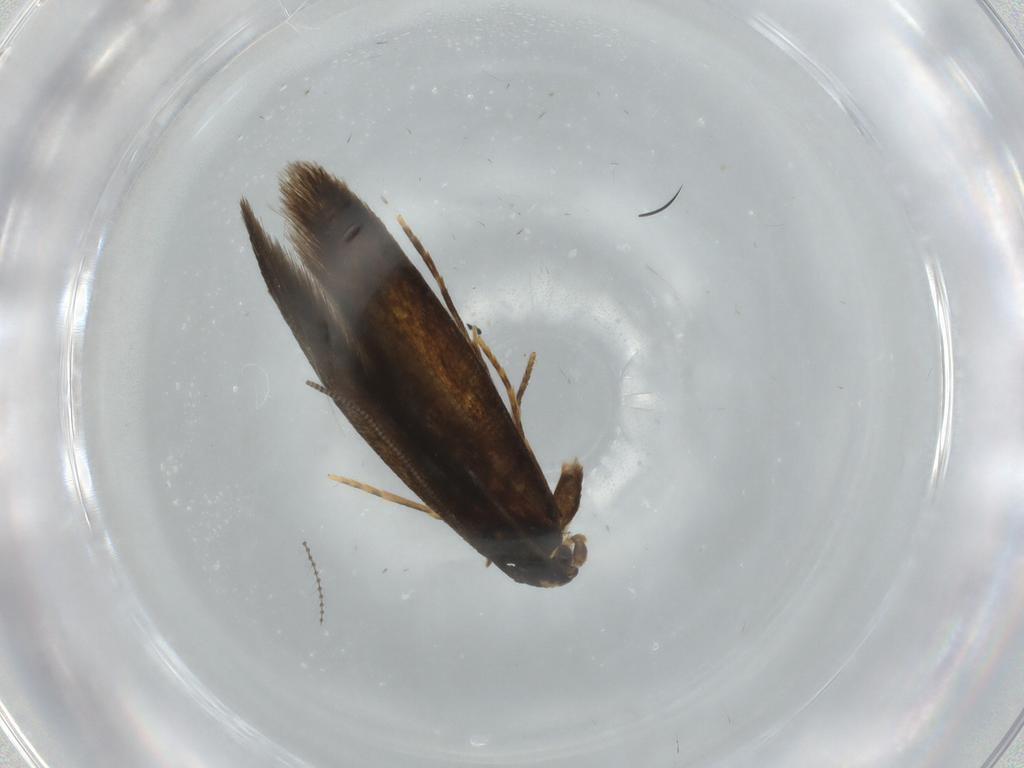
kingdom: Animalia
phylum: Arthropoda
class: Insecta
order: Lepidoptera
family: Tineidae
